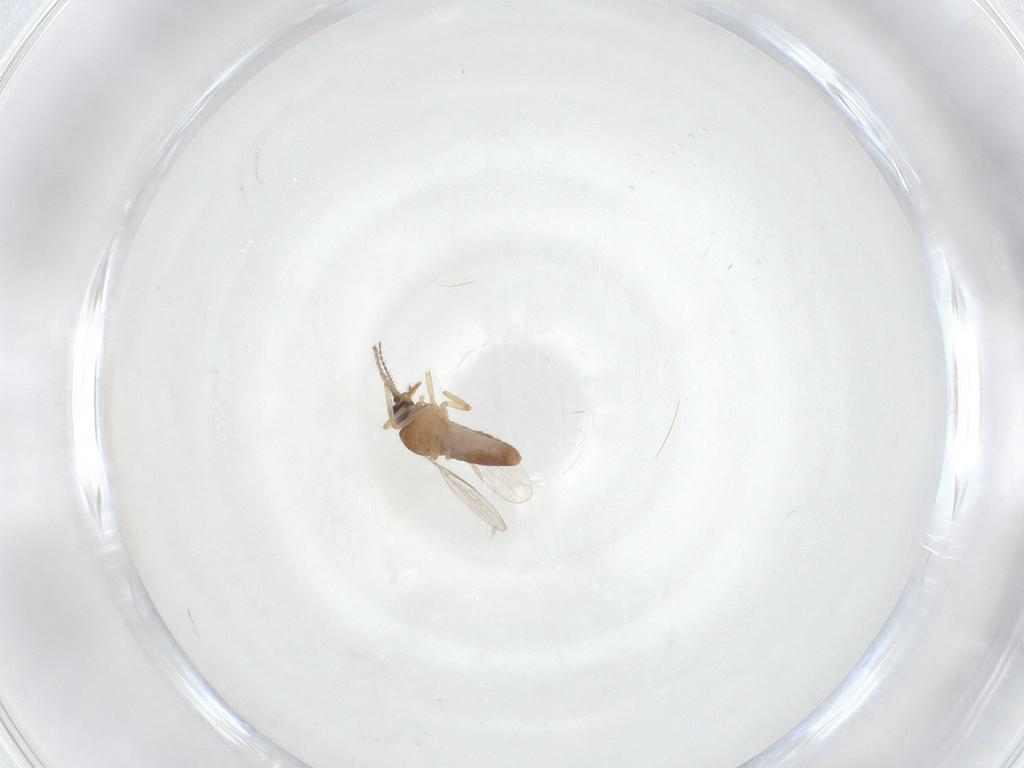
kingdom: Animalia
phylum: Arthropoda
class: Insecta
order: Diptera
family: Ceratopogonidae
